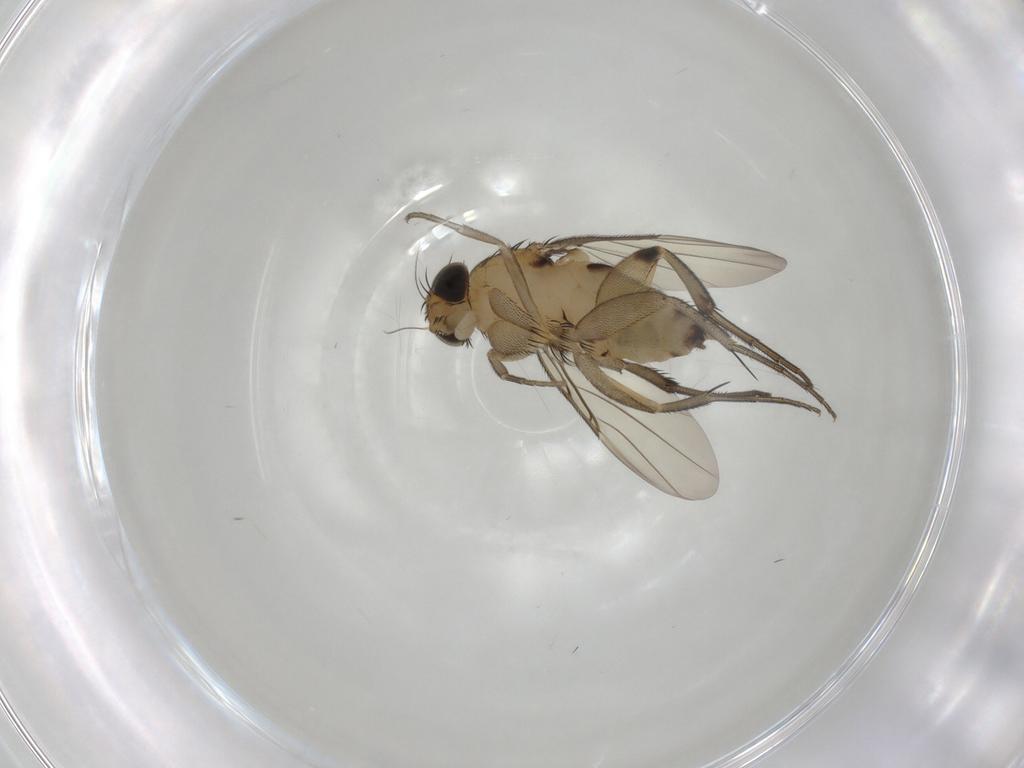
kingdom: Animalia
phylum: Arthropoda
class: Insecta
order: Diptera
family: Phoridae
